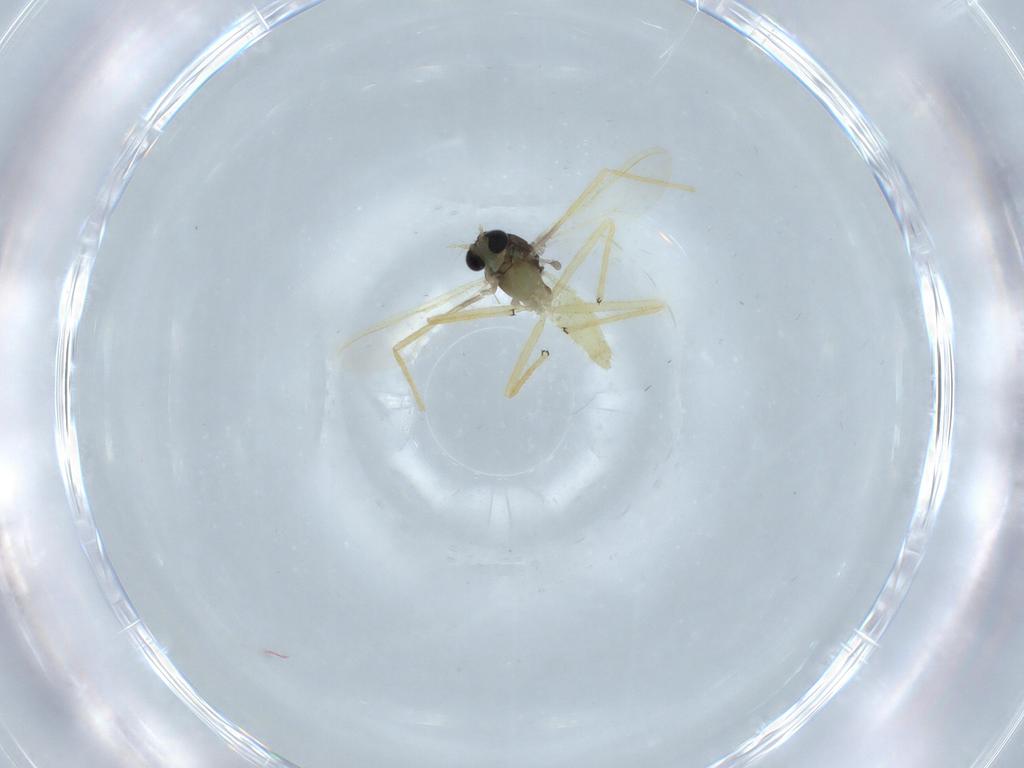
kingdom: Animalia
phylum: Arthropoda
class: Insecta
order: Diptera
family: Chironomidae
